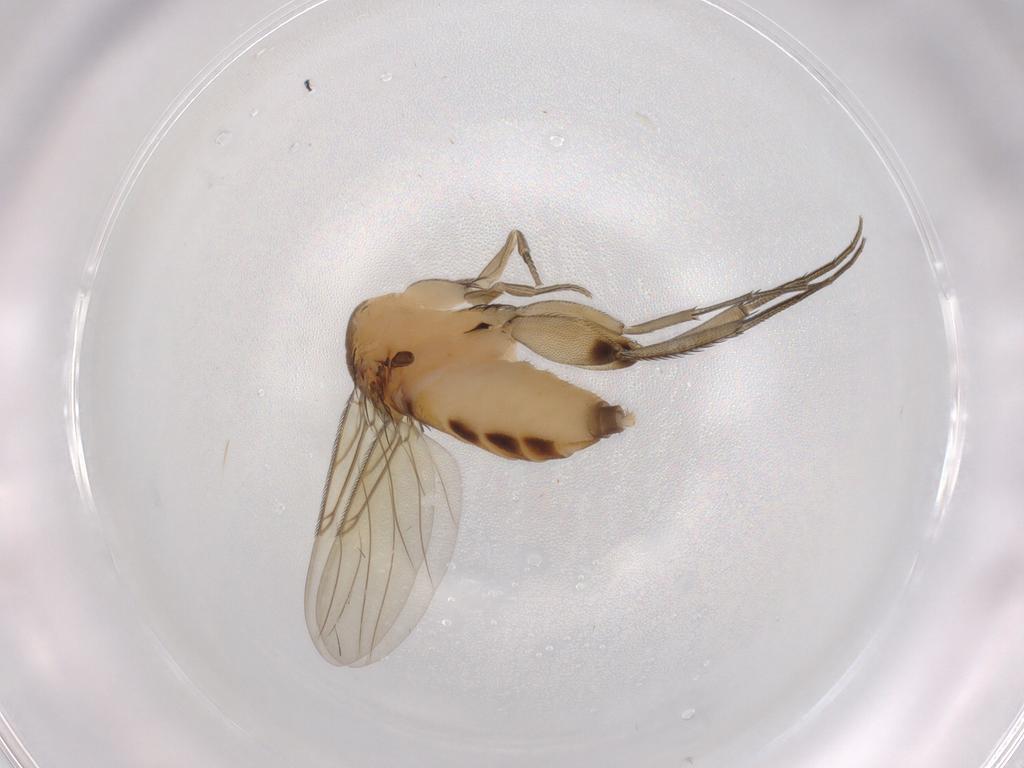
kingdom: Animalia
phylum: Arthropoda
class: Insecta
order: Diptera
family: Phoridae
